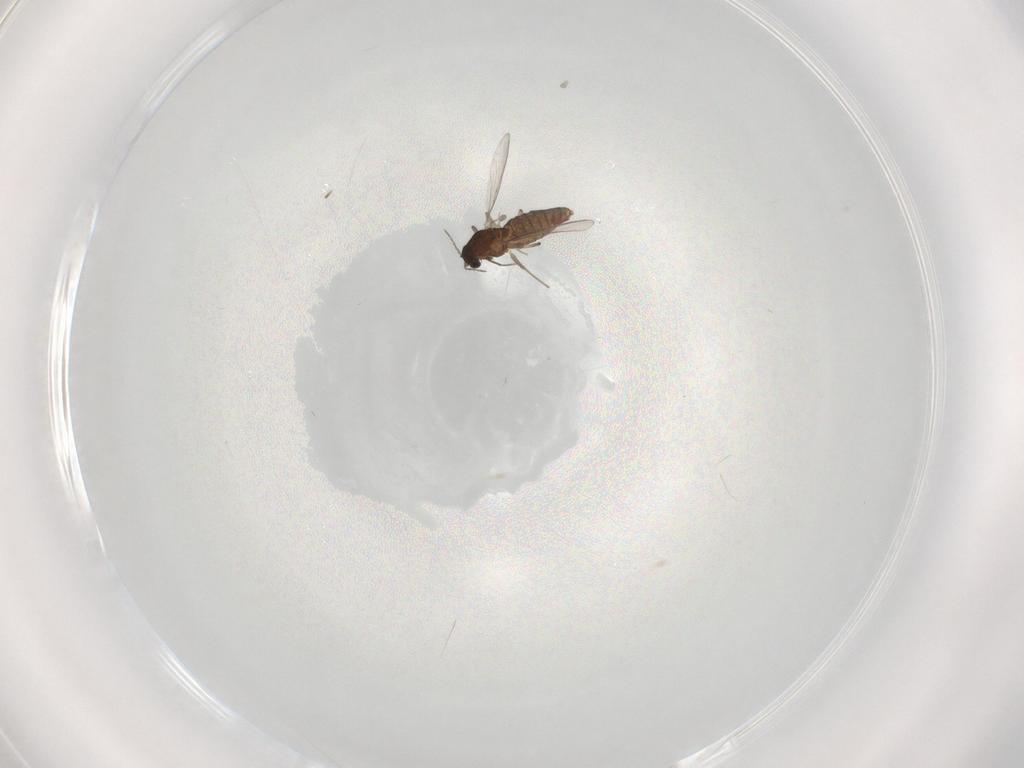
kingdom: Animalia
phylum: Arthropoda
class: Insecta
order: Diptera
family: Chironomidae
